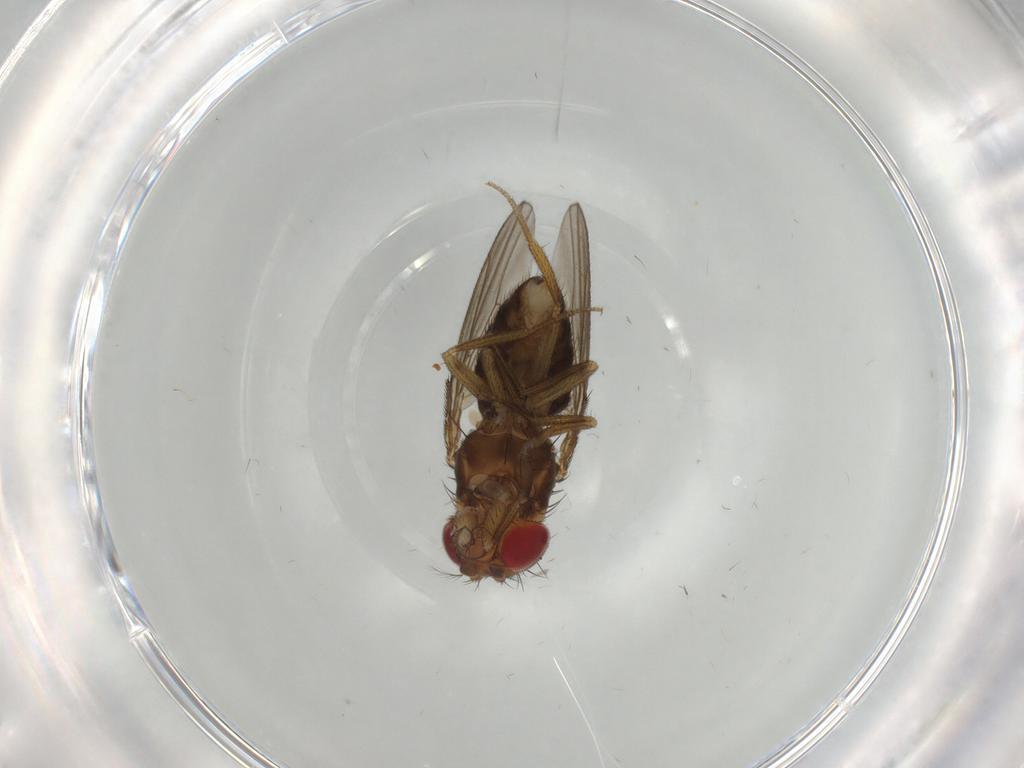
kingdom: Animalia
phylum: Arthropoda
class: Insecta
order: Diptera
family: Drosophilidae
